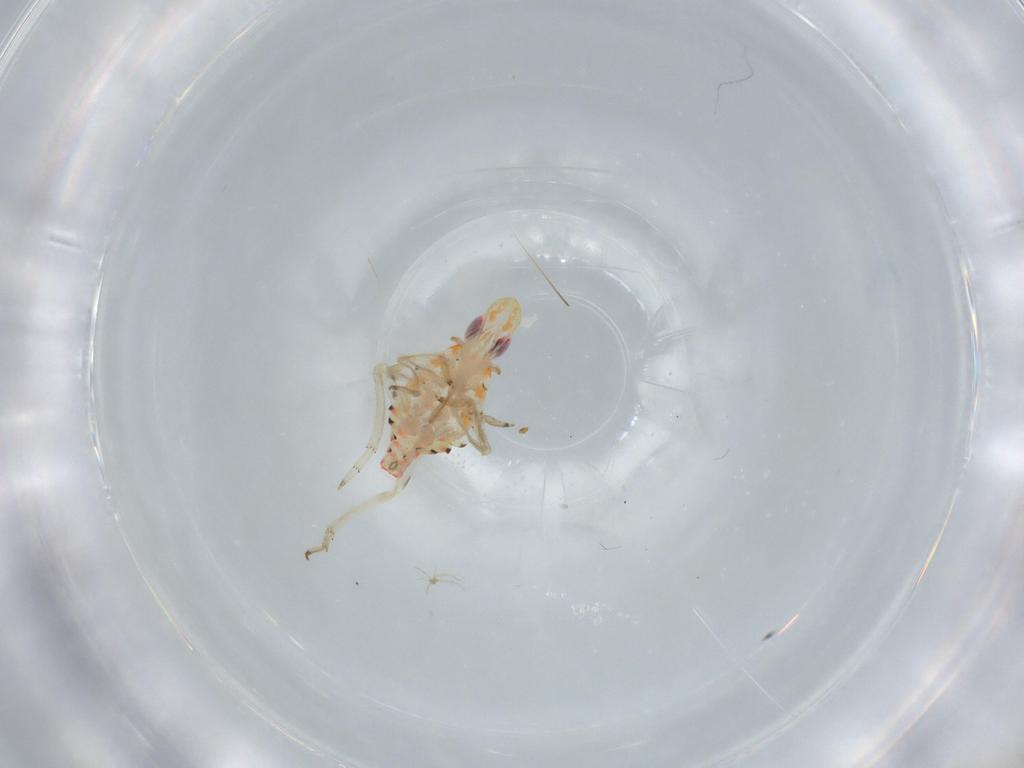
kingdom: Animalia
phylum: Arthropoda
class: Insecta
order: Hemiptera
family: Tropiduchidae
